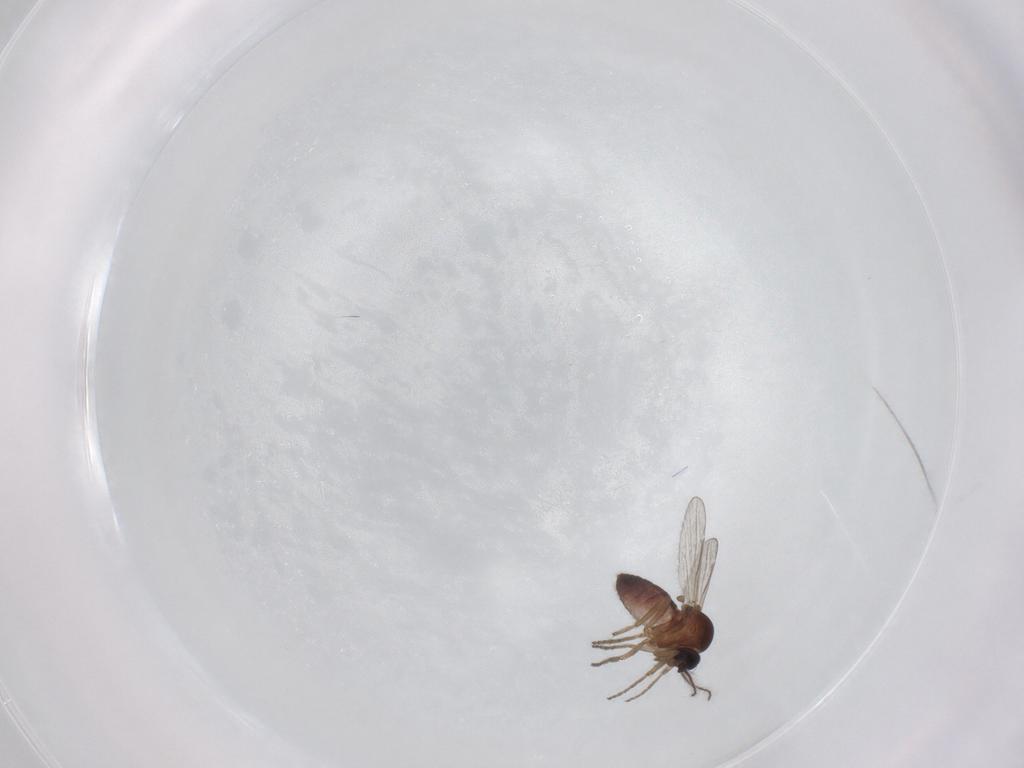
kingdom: Animalia
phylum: Arthropoda
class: Insecta
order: Diptera
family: Ceratopogonidae
